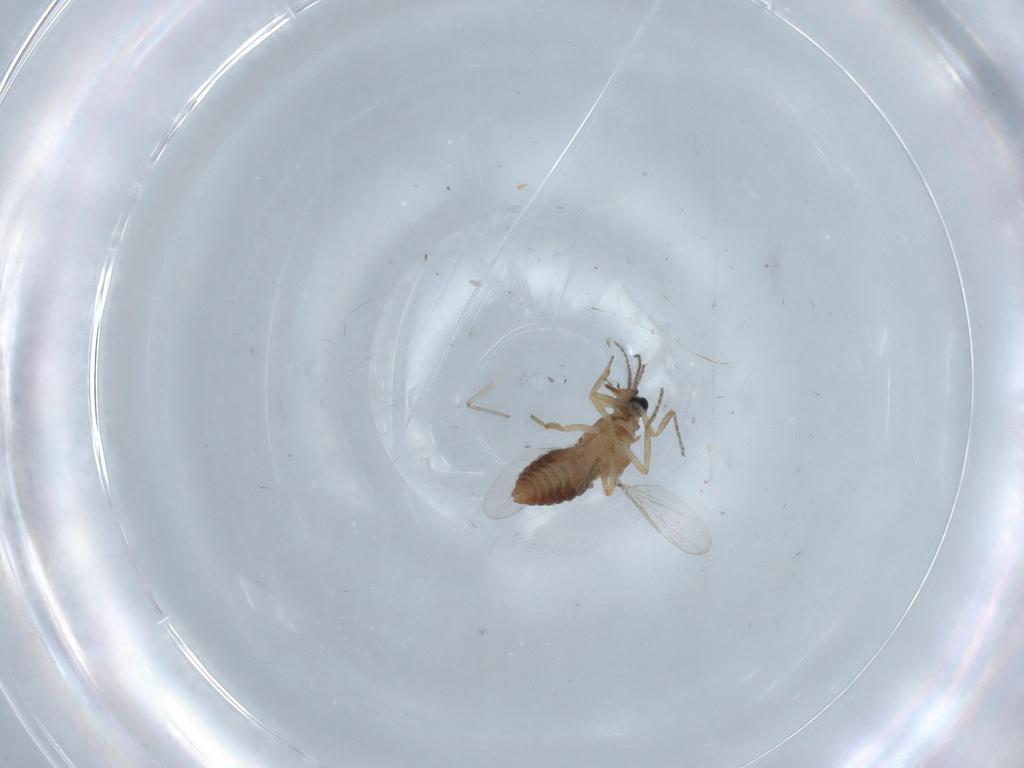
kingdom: Animalia
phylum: Arthropoda
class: Insecta
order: Diptera
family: Ceratopogonidae
